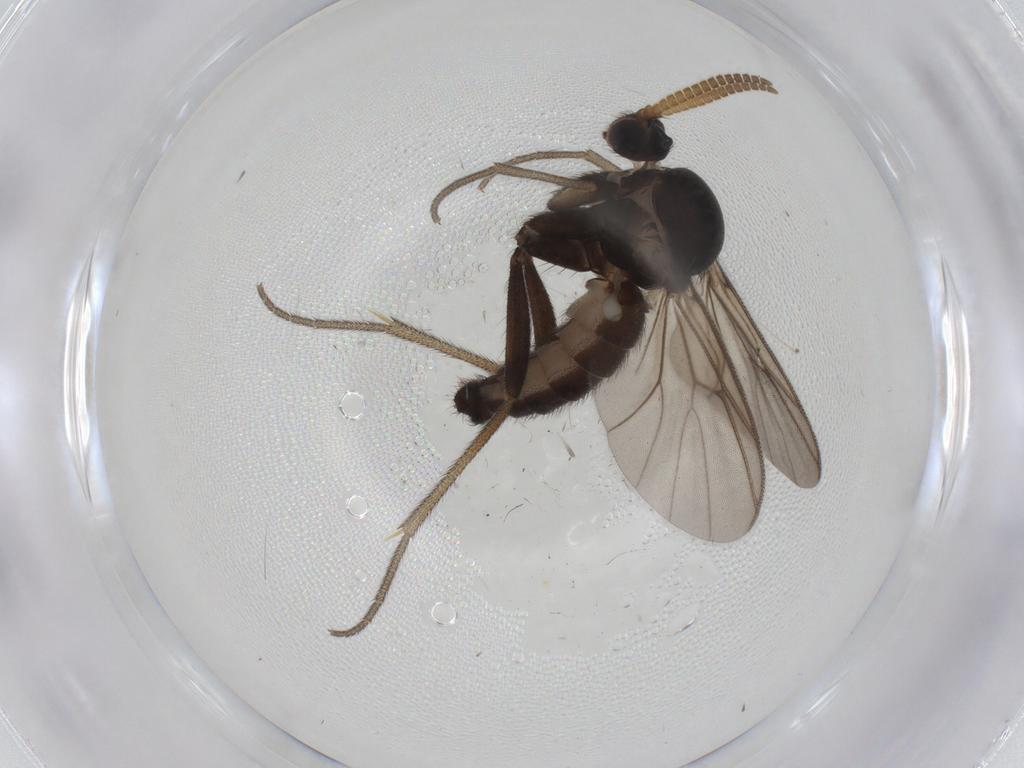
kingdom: Animalia
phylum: Arthropoda
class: Insecta
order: Diptera
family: Mycetophilidae
